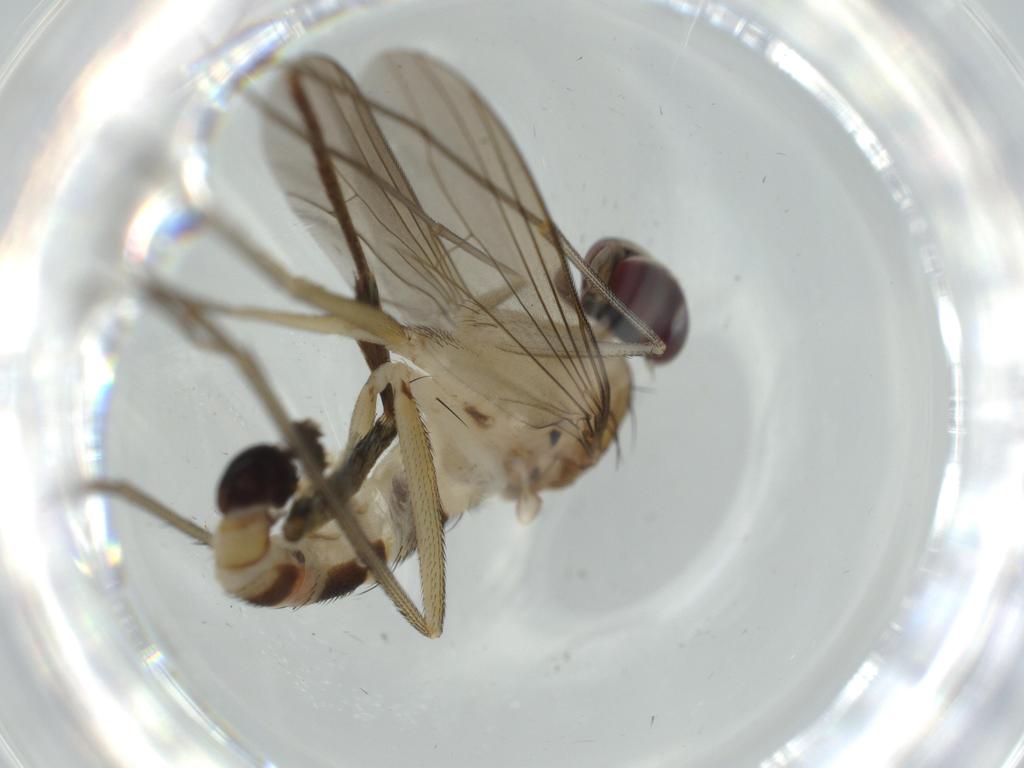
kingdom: Animalia
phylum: Arthropoda
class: Insecta
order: Diptera
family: Dolichopodidae
